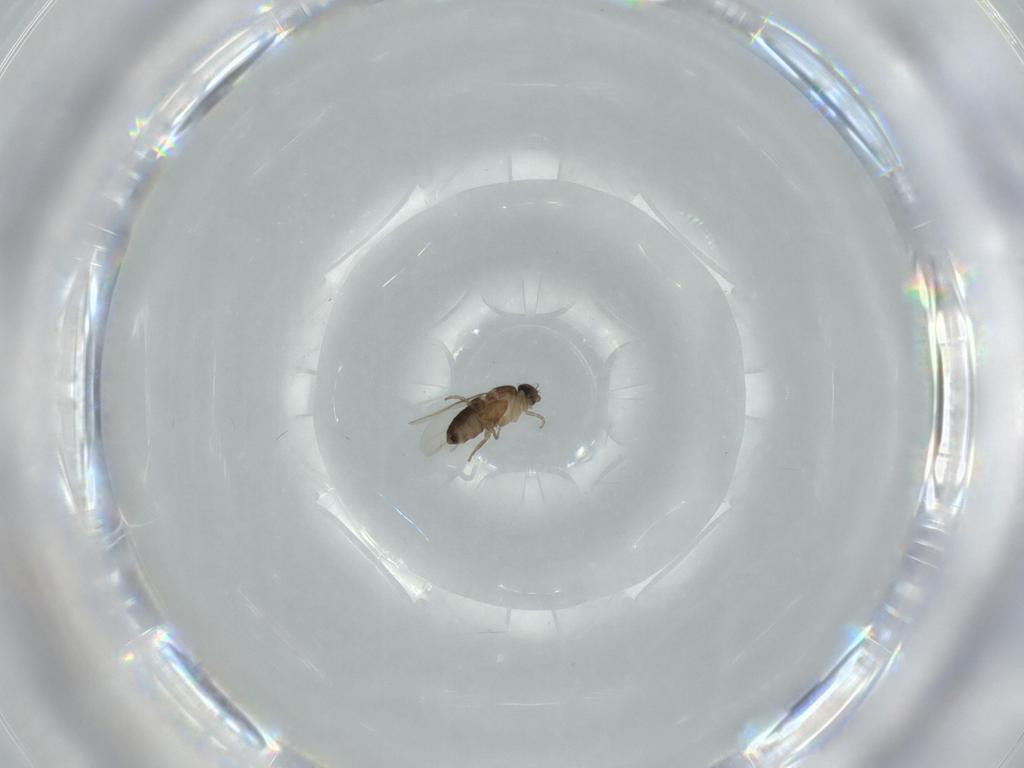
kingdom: Animalia
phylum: Arthropoda
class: Insecta
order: Diptera
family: Phoridae
